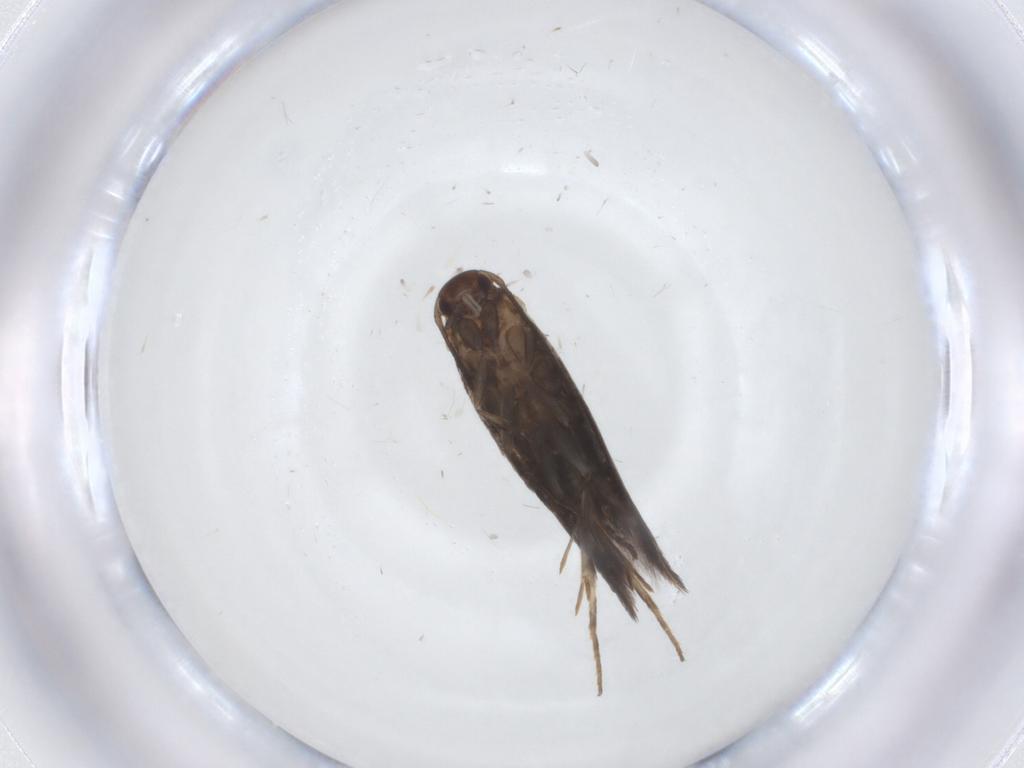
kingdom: Animalia
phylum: Arthropoda
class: Insecta
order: Lepidoptera
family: Elachistidae
